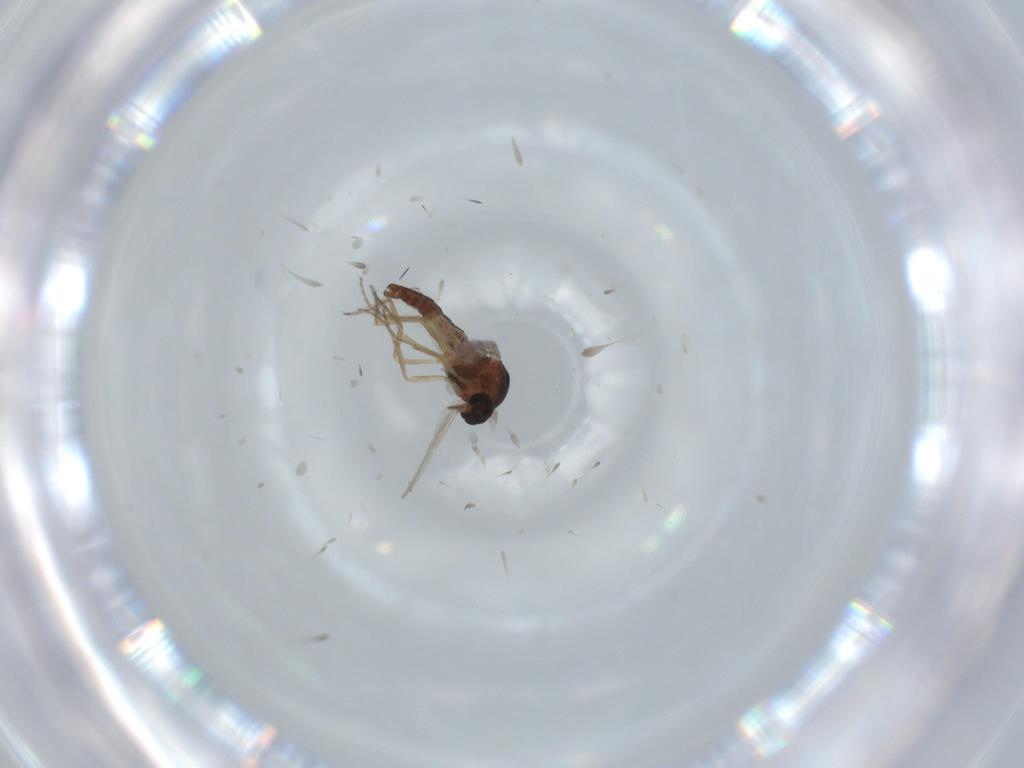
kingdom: Animalia
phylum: Arthropoda
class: Insecta
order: Diptera
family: Ceratopogonidae
